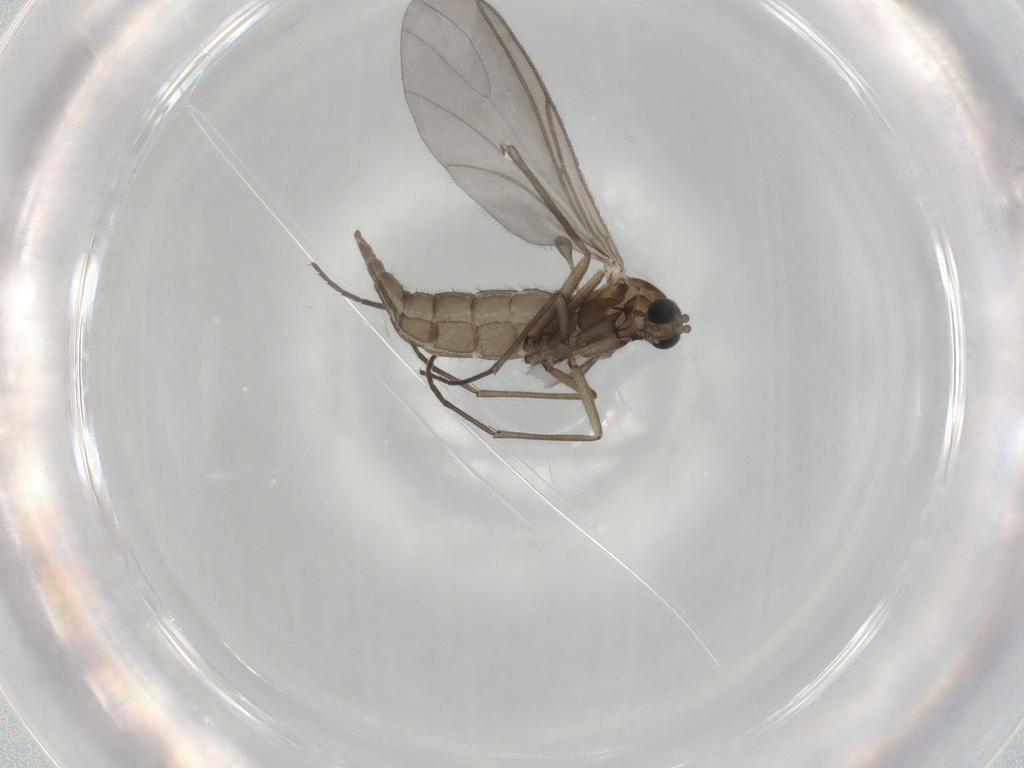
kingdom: Animalia
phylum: Arthropoda
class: Insecta
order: Diptera
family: Sciaridae
